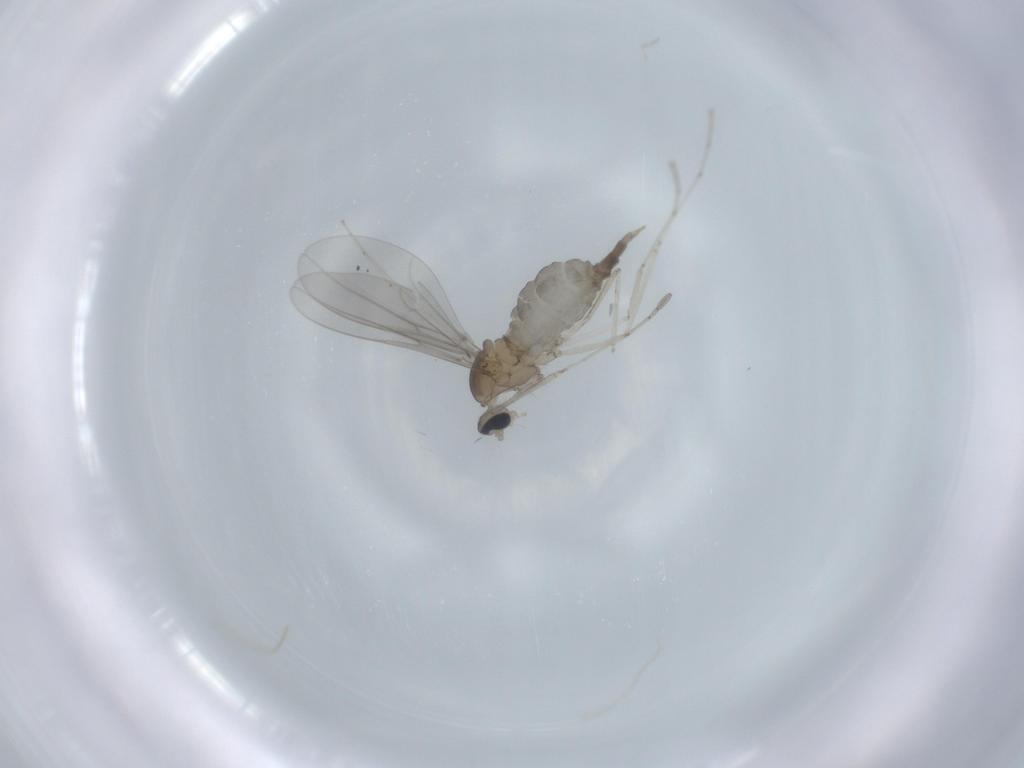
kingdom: Animalia
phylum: Arthropoda
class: Insecta
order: Diptera
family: Cecidomyiidae
